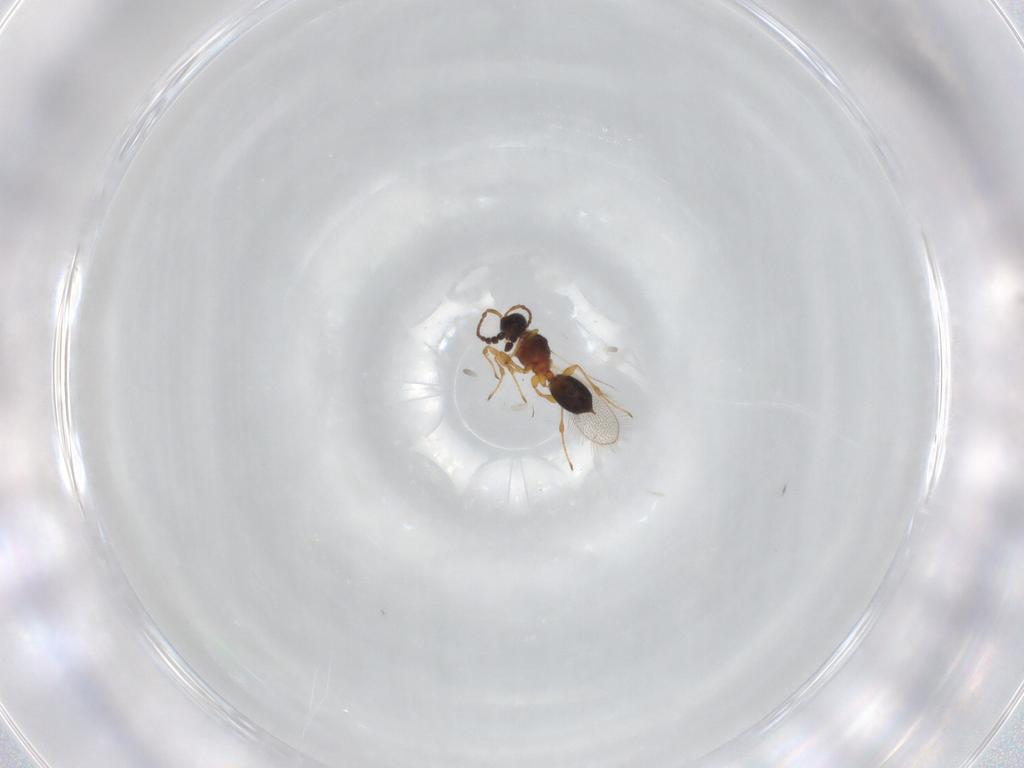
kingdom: Animalia
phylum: Arthropoda
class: Insecta
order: Hymenoptera
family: Diapriidae
